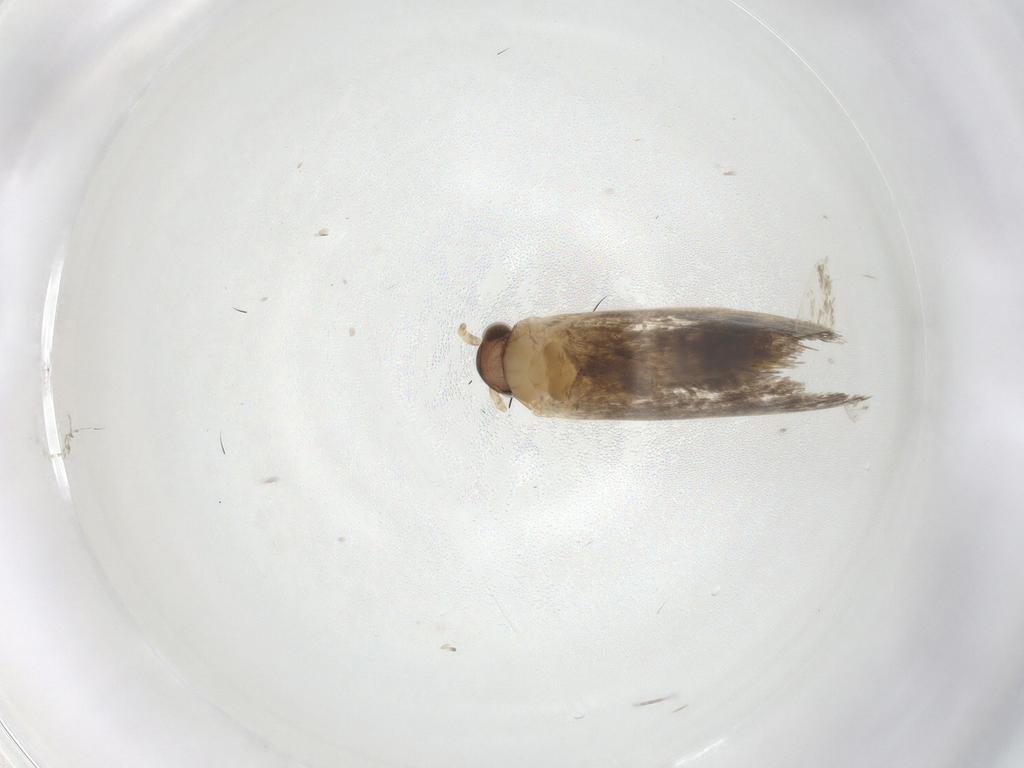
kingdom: Animalia
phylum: Arthropoda
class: Insecta
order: Lepidoptera
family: Dryadaulidae
